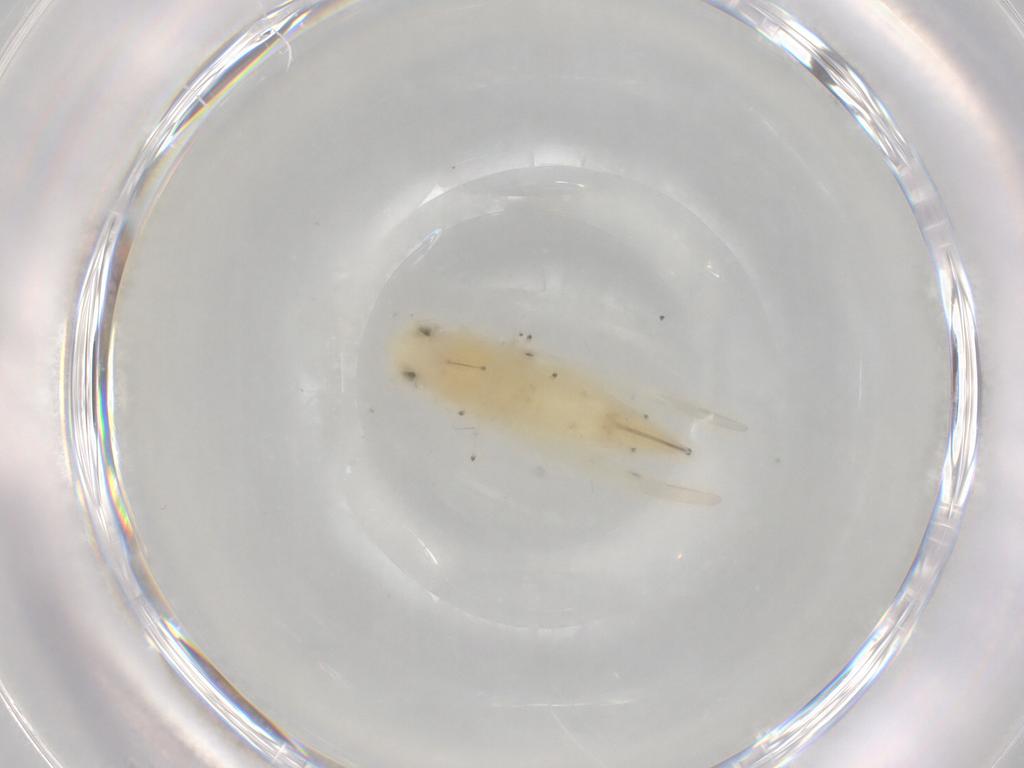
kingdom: Animalia
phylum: Arthropoda
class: Insecta
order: Hemiptera
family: Cicadellidae
